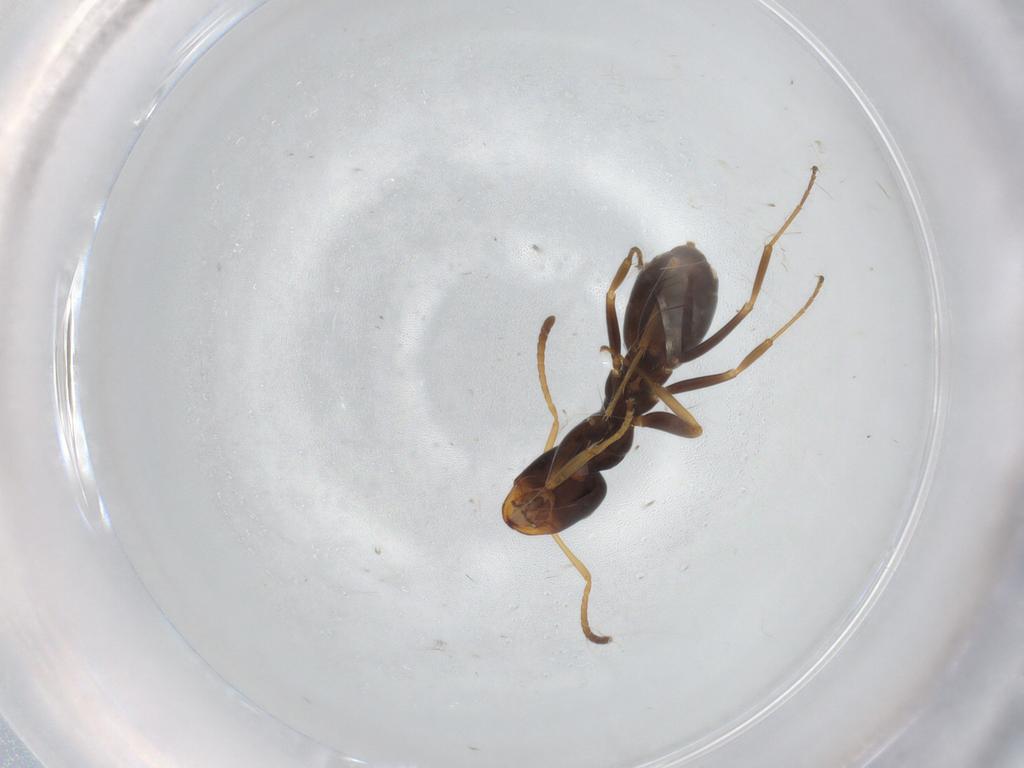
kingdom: Animalia
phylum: Arthropoda
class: Insecta
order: Hymenoptera
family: Formicidae
